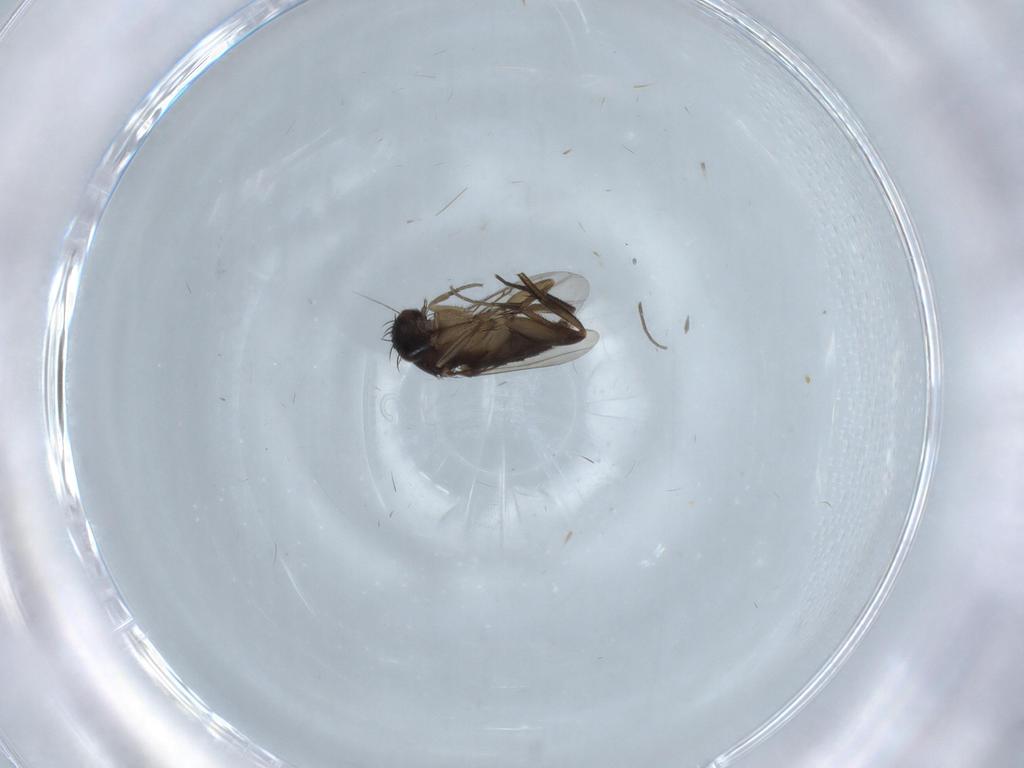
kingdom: Animalia
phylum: Arthropoda
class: Insecta
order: Diptera
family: Phoridae
